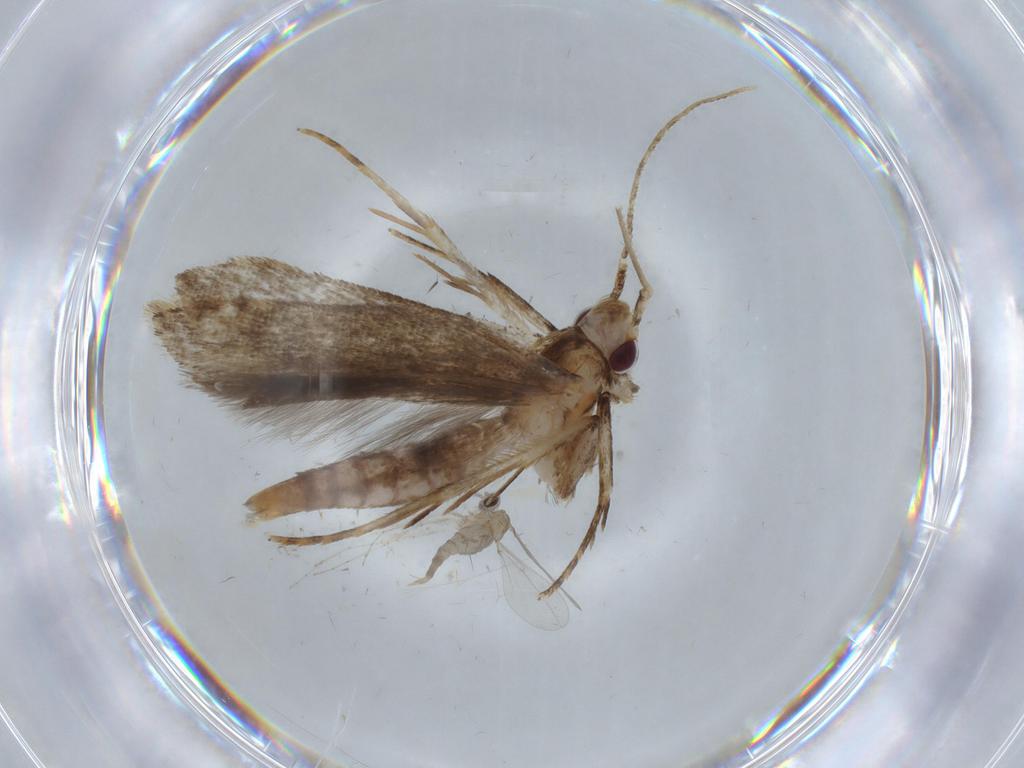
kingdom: Animalia
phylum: Arthropoda
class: Insecta
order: Lepidoptera
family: Gelechiidae
